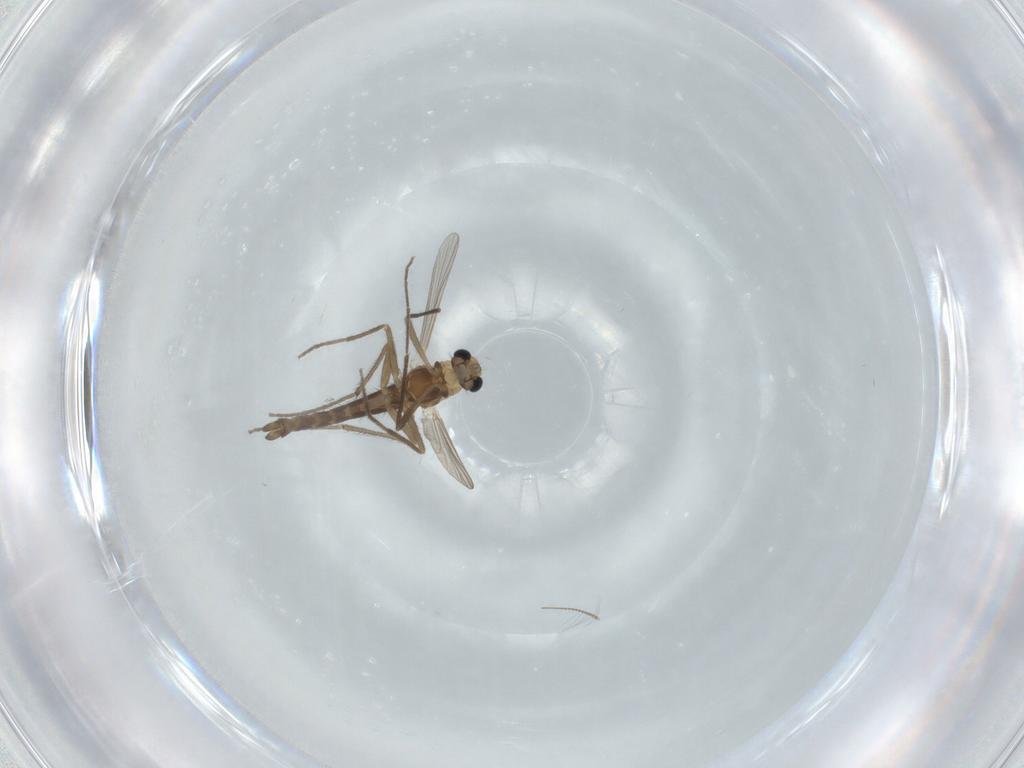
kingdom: Animalia
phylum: Arthropoda
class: Insecta
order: Diptera
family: Chironomidae
